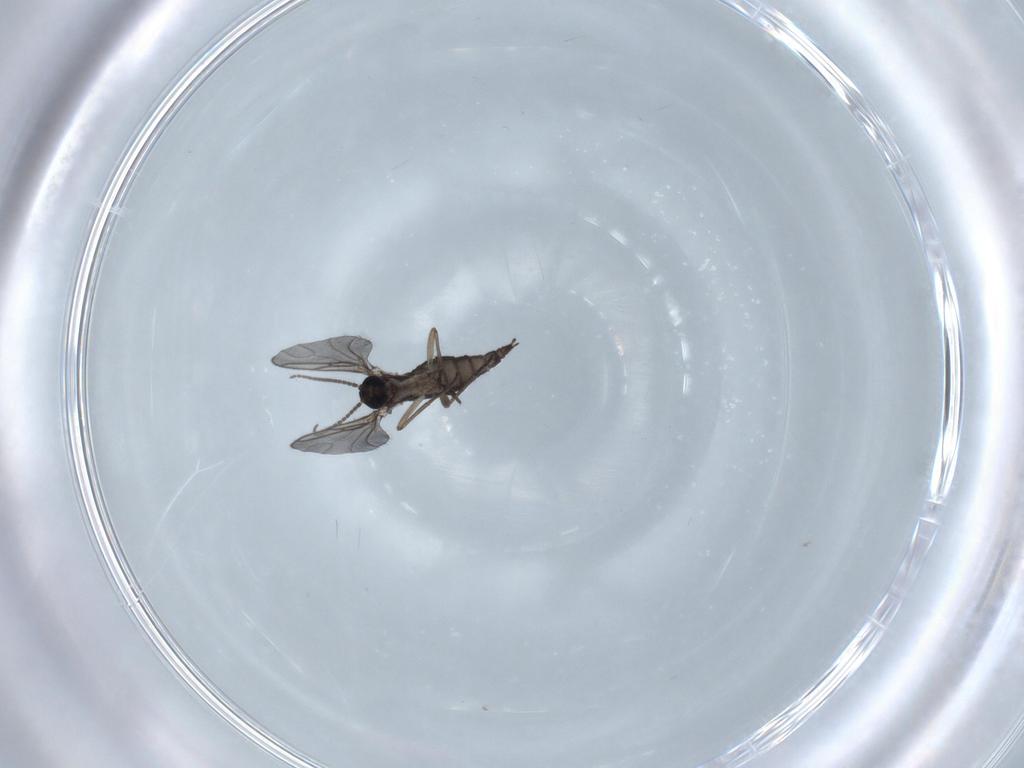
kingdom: Animalia
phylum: Arthropoda
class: Insecta
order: Diptera
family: Sciaridae
